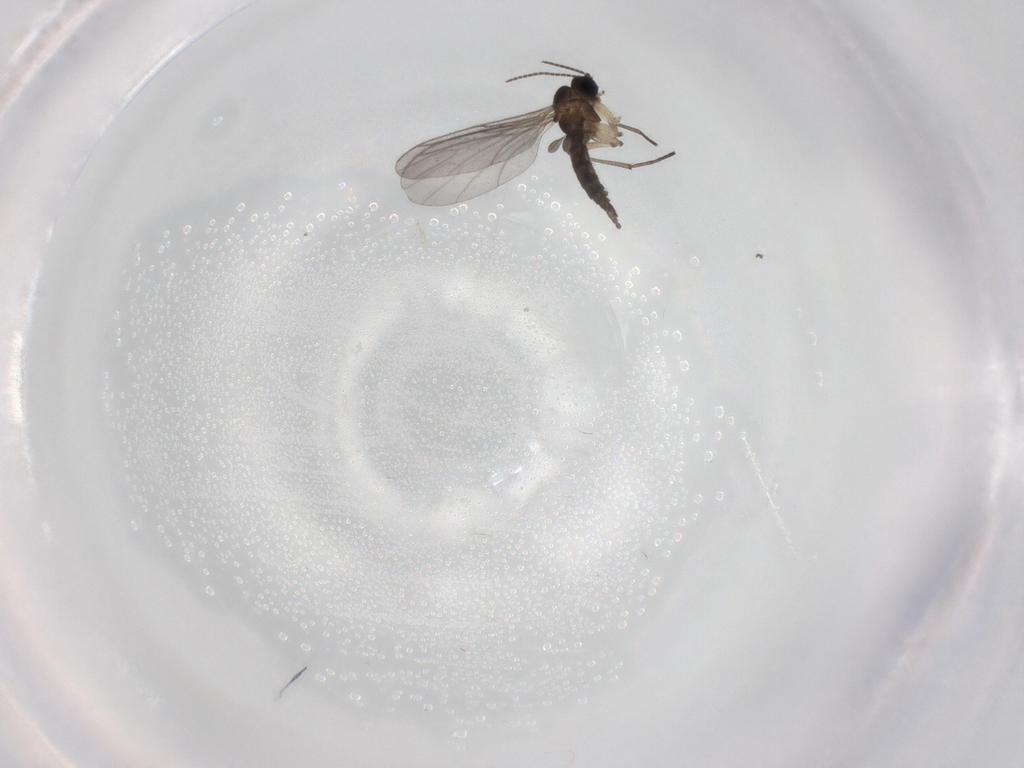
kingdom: Animalia
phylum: Arthropoda
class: Insecta
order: Diptera
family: Sciaridae
